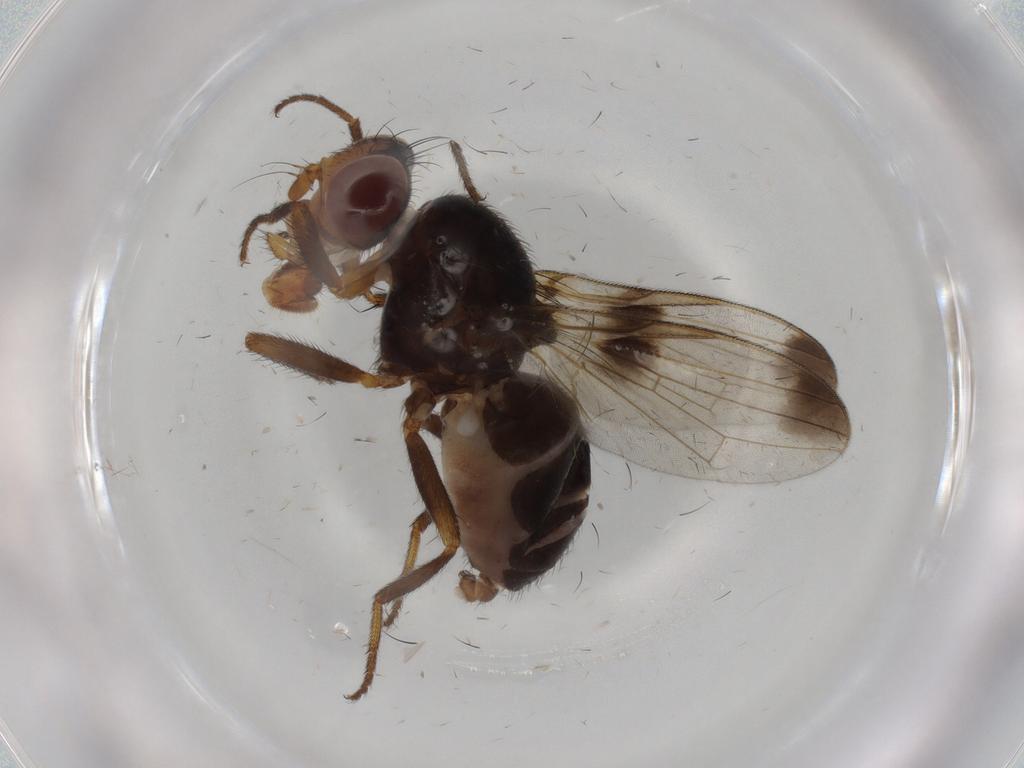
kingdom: Animalia
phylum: Arthropoda
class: Insecta
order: Diptera
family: Ulidiidae
